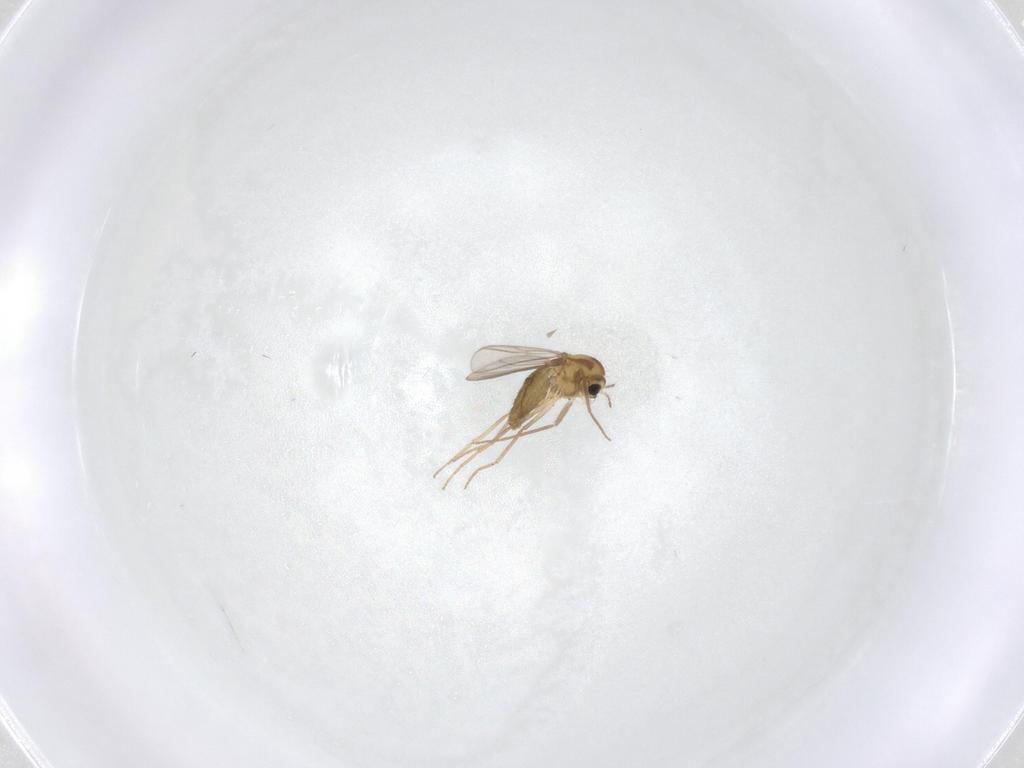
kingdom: Animalia
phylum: Arthropoda
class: Insecta
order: Diptera
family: Chironomidae
